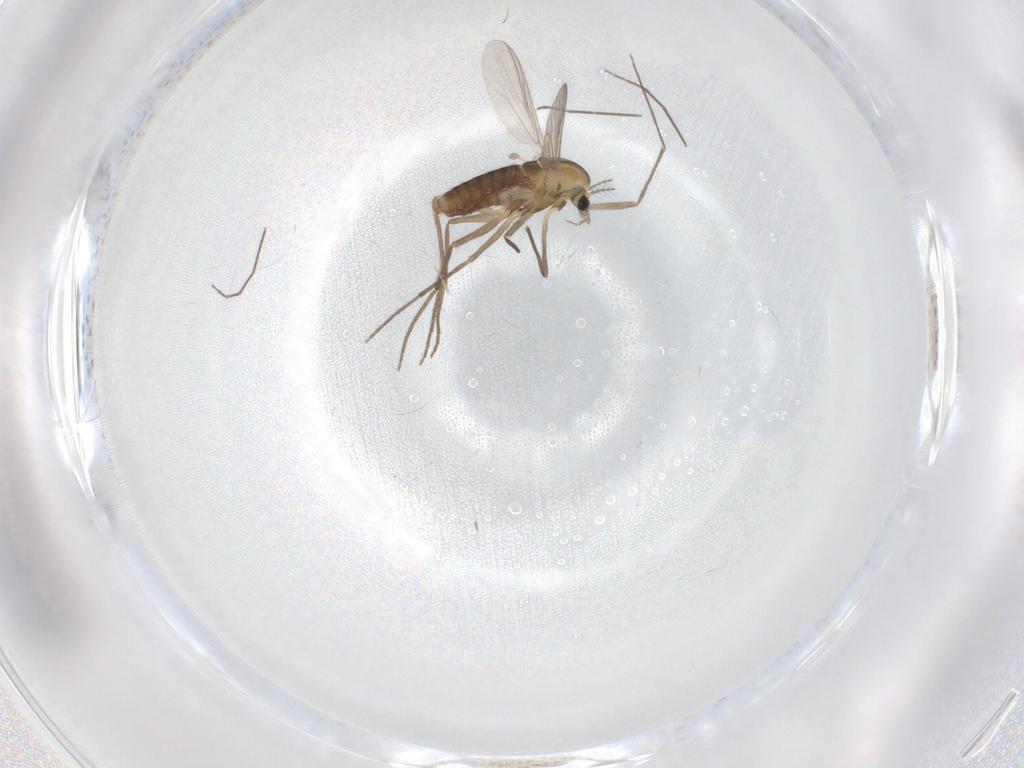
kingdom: Animalia
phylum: Arthropoda
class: Insecta
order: Diptera
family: Chironomidae
